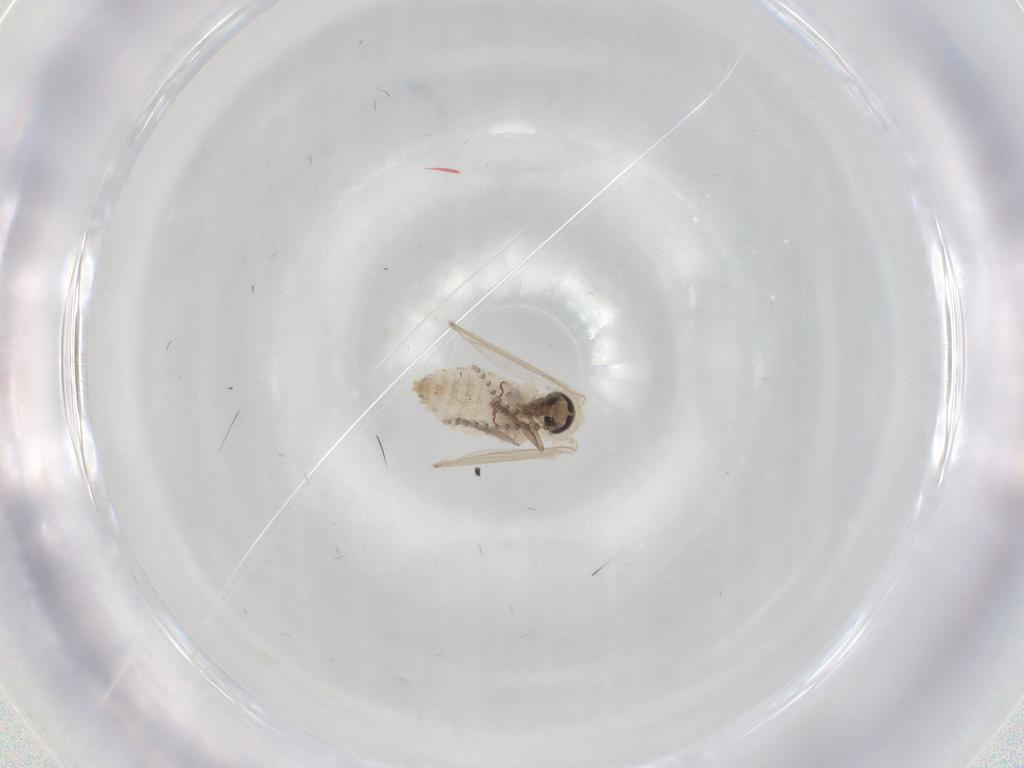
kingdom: Animalia
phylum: Arthropoda
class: Insecta
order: Diptera
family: Psychodidae
